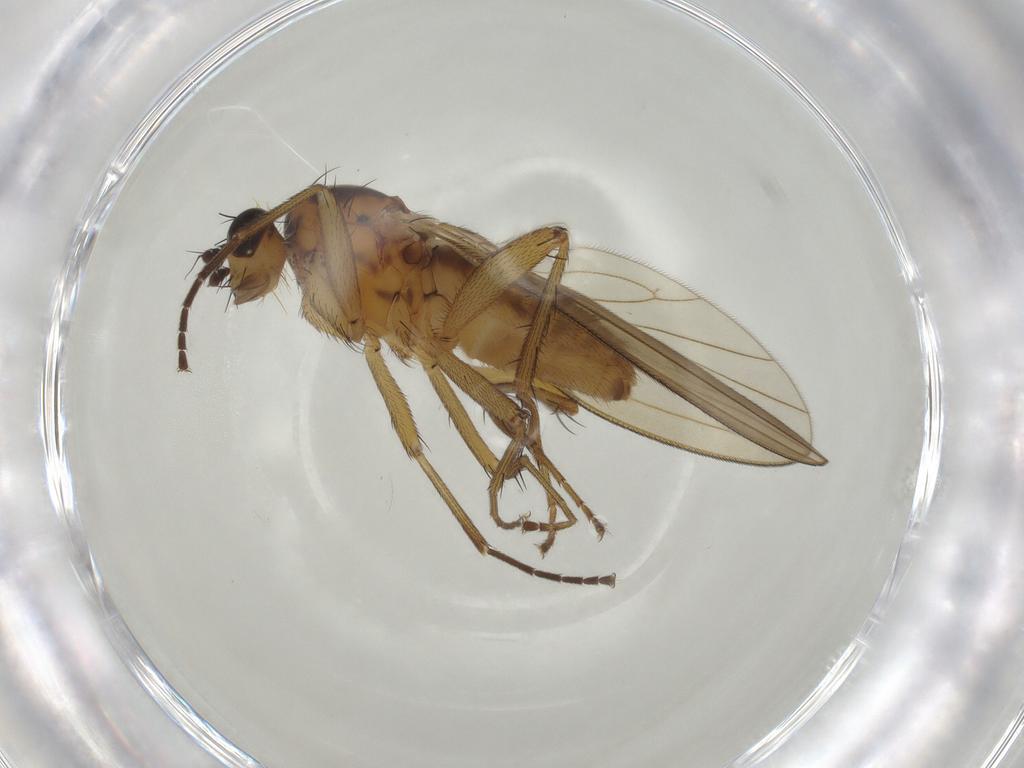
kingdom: Animalia
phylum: Arthropoda
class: Insecta
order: Diptera
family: Lonchopteridae
